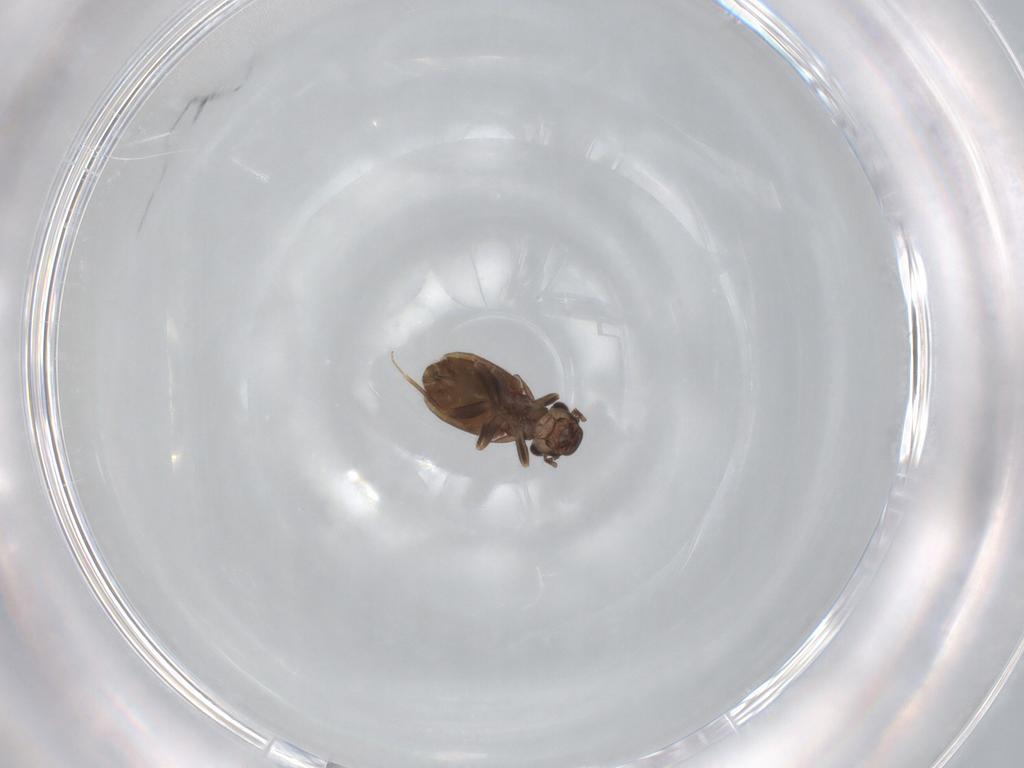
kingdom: Animalia
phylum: Arthropoda
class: Insecta
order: Psocodea
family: Trogiidae
